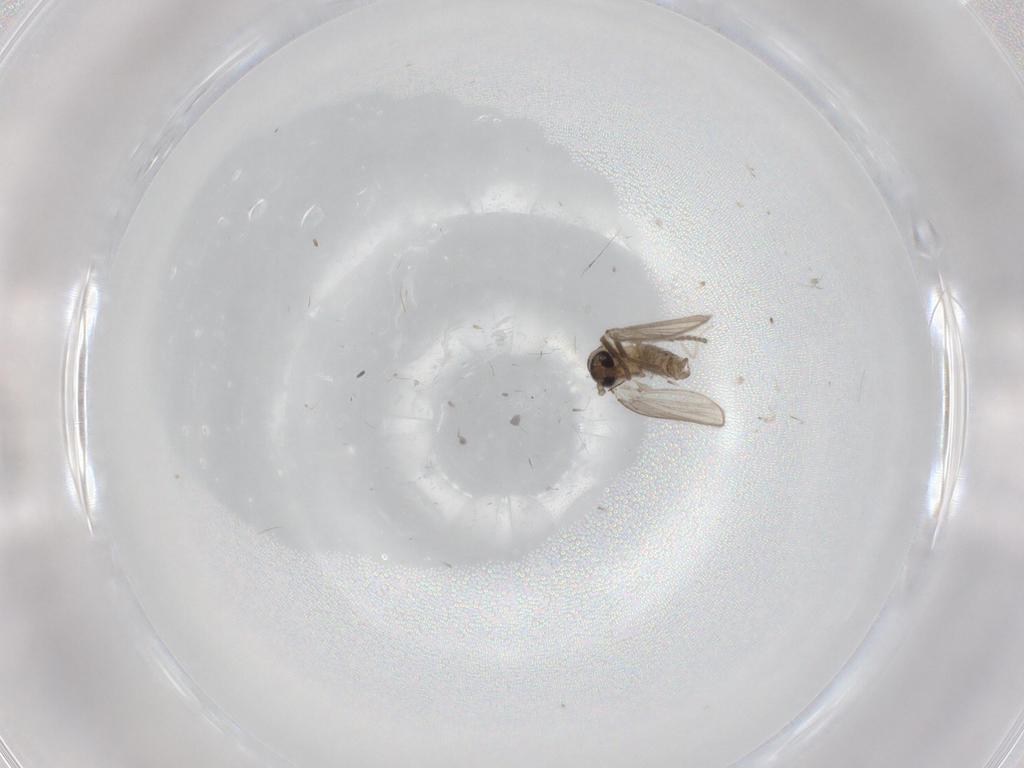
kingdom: Animalia
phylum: Arthropoda
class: Insecta
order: Diptera
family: Psychodidae
